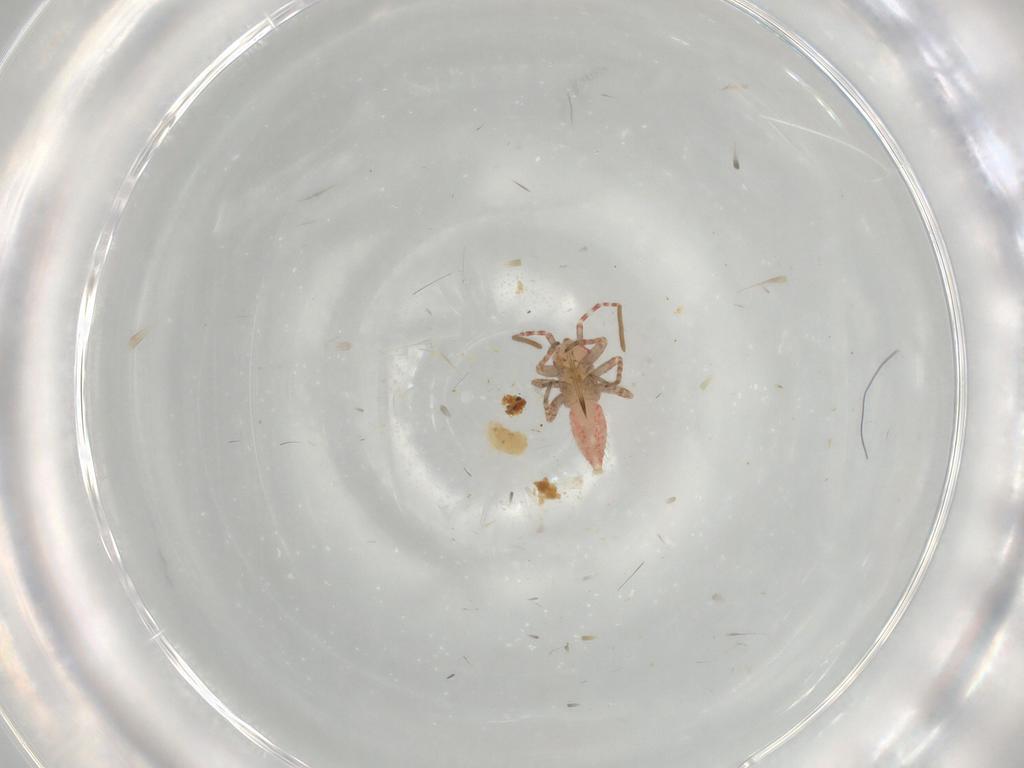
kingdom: Animalia
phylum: Arthropoda
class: Insecta
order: Hemiptera
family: Miridae
